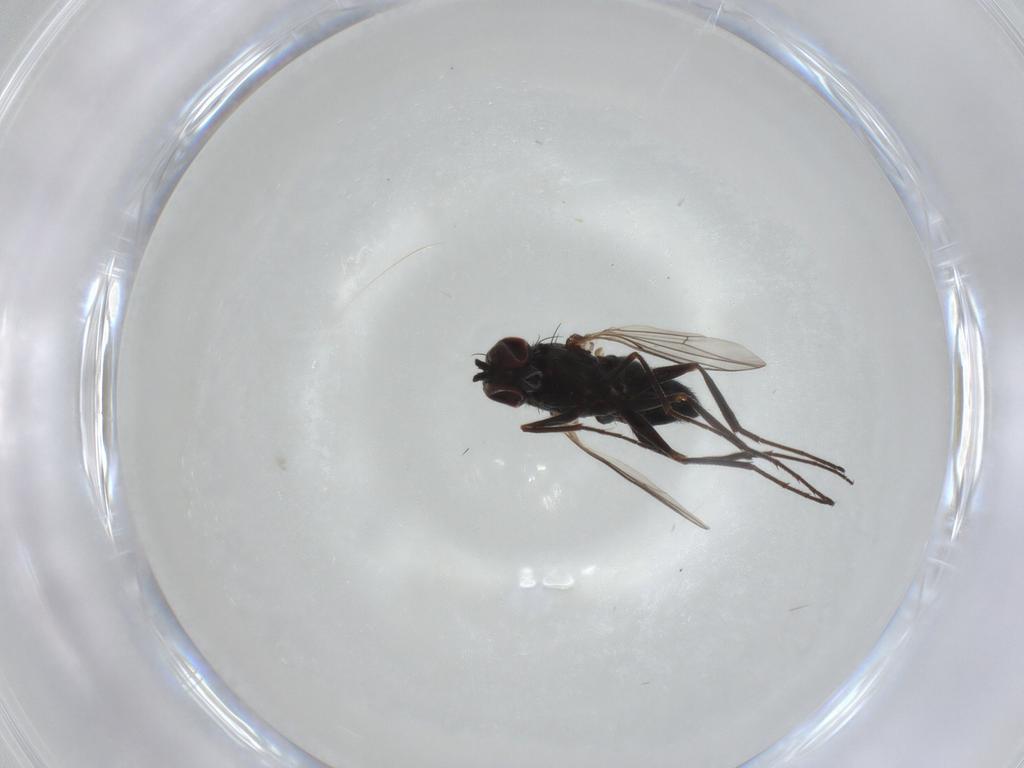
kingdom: Animalia
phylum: Arthropoda
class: Insecta
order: Diptera
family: Dolichopodidae
